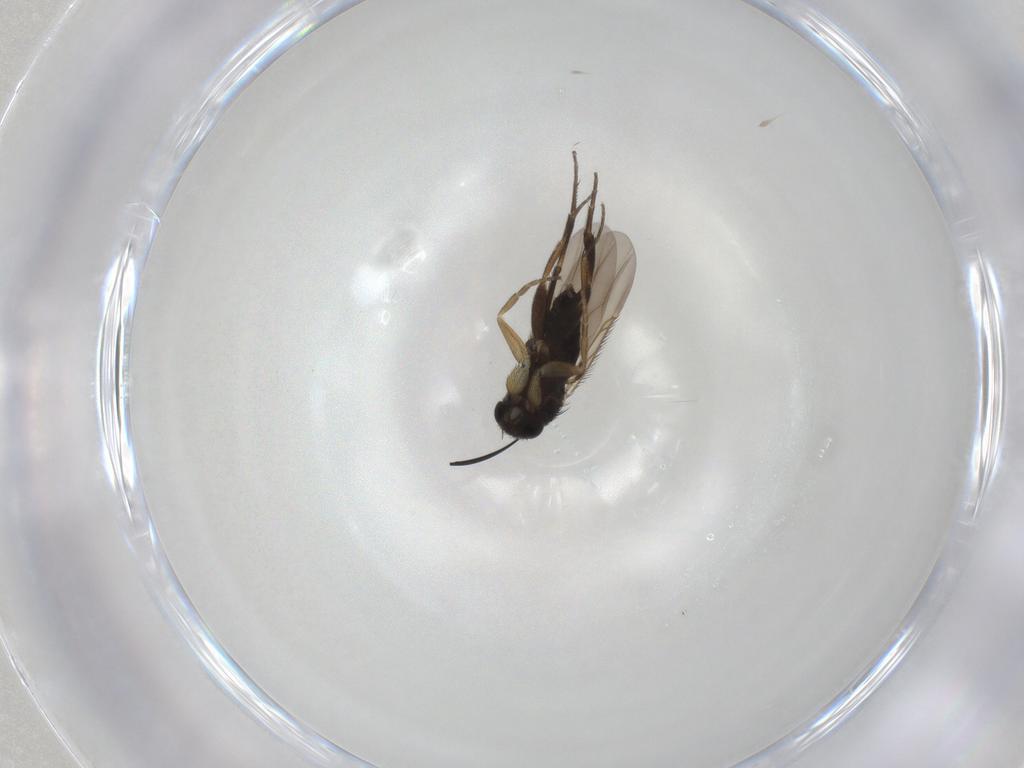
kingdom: Animalia
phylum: Arthropoda
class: Insecta
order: Diptera
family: Phoridae
